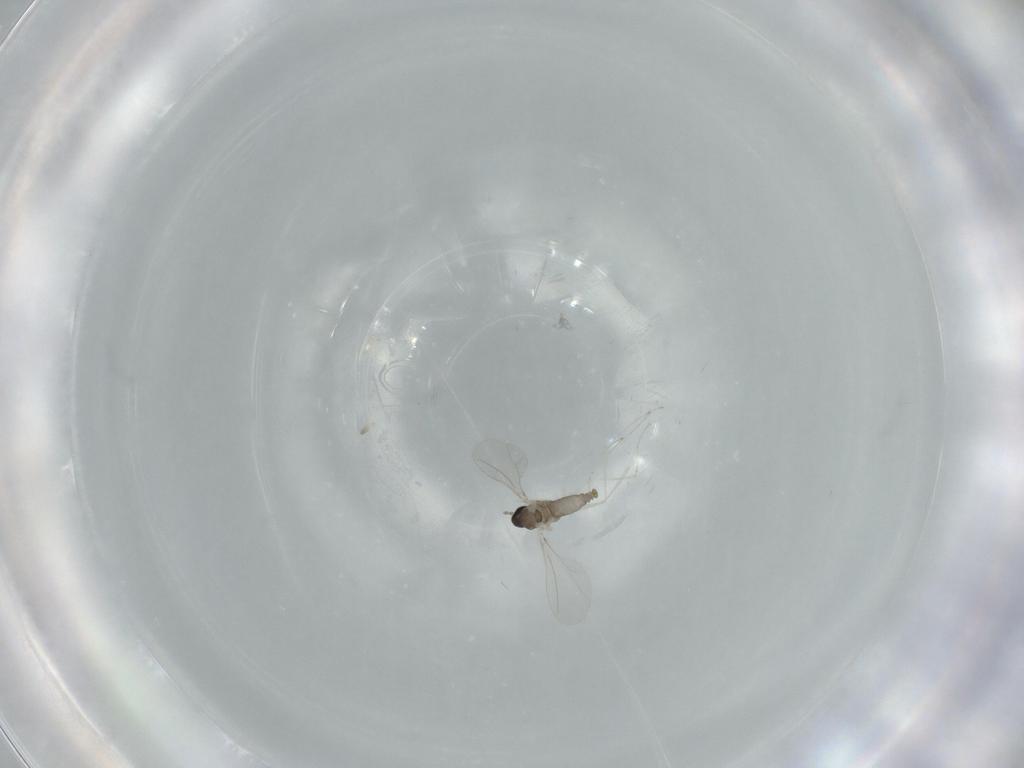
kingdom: Animalia
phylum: Arthropoda
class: Insecta
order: Diptera
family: Cecidomyiidae
